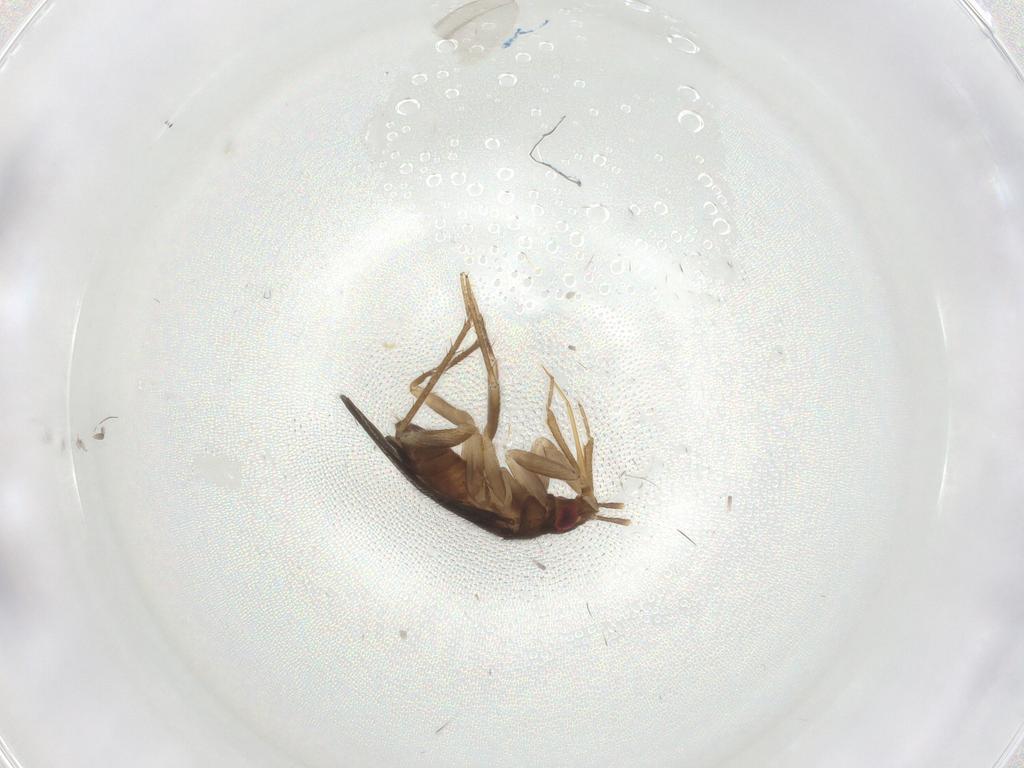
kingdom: Animalia
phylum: Arthropoda
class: Insecta
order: Hemiptera
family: Ceratocombidae
